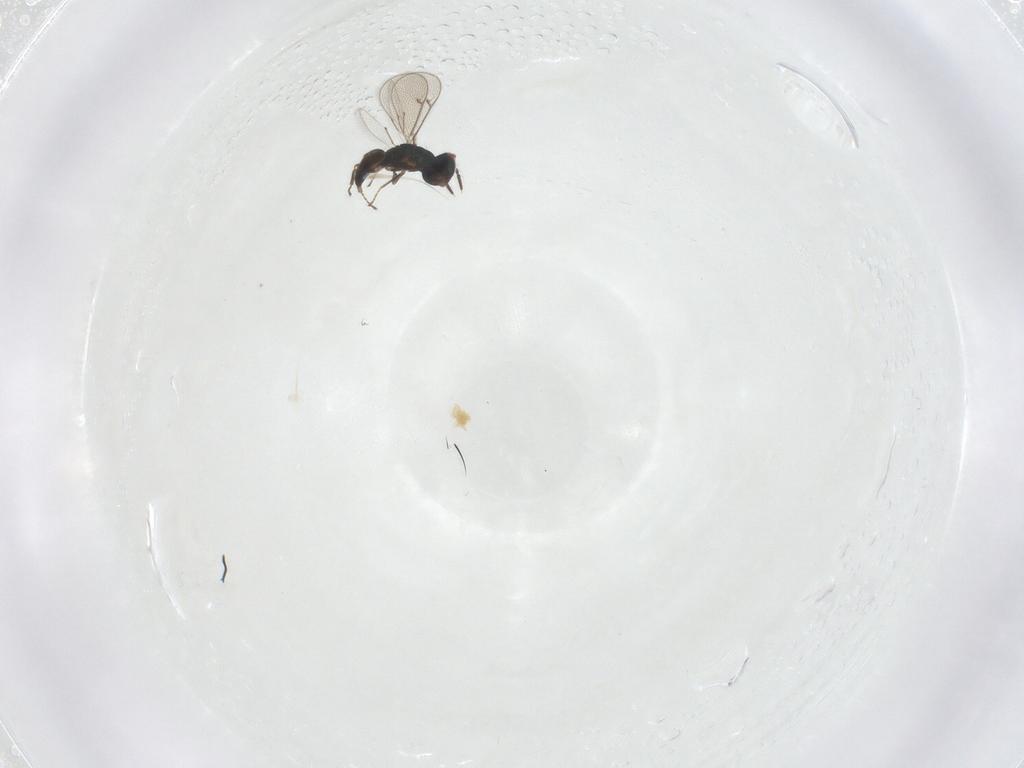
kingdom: Animalia
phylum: Arthropoda
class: Insecta
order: Hymenoptera
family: Eulophidae
